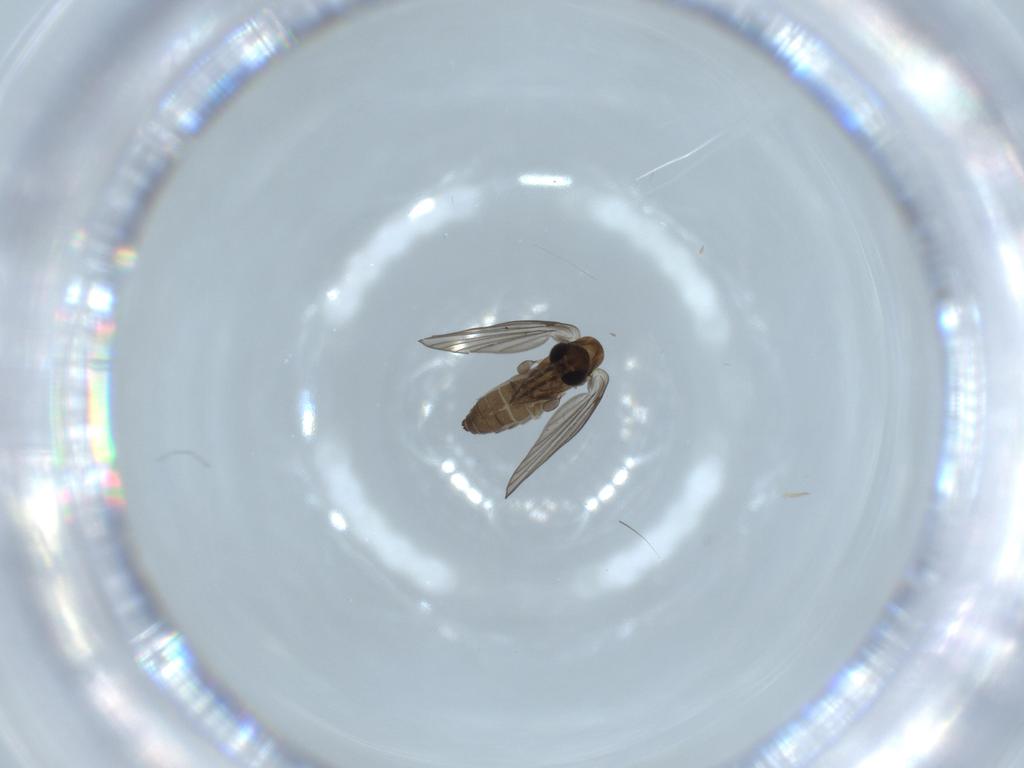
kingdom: Animalia
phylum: Arthropoda
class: Insecta
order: Diptera
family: Psychodidae
